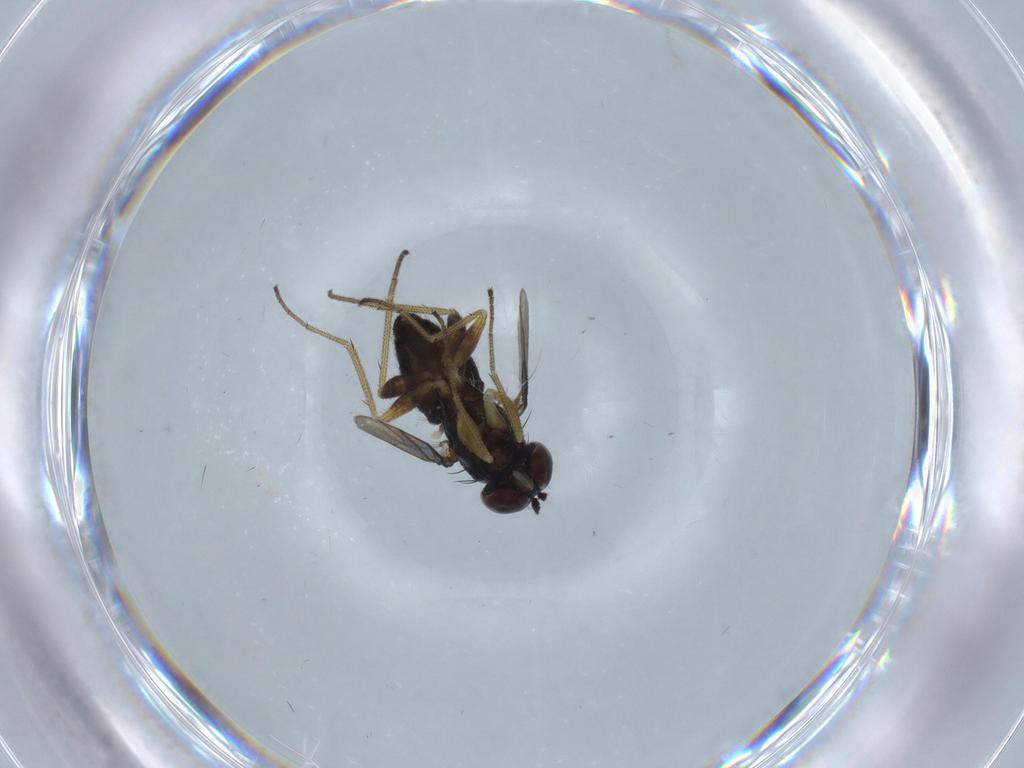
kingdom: Animalia
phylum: Arthropoda
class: Insecta
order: Diptera
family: Dolichopodidae
